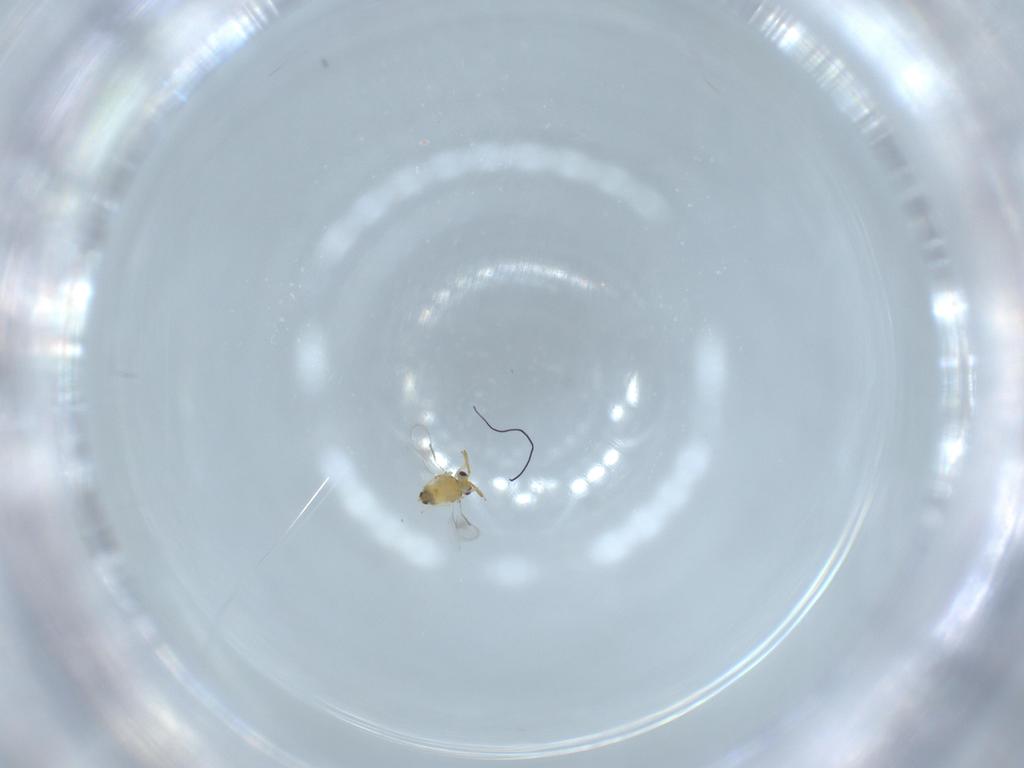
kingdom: Animalia
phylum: Arthropoda
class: Insecta
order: Hymenoptera
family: Aphelinidae
